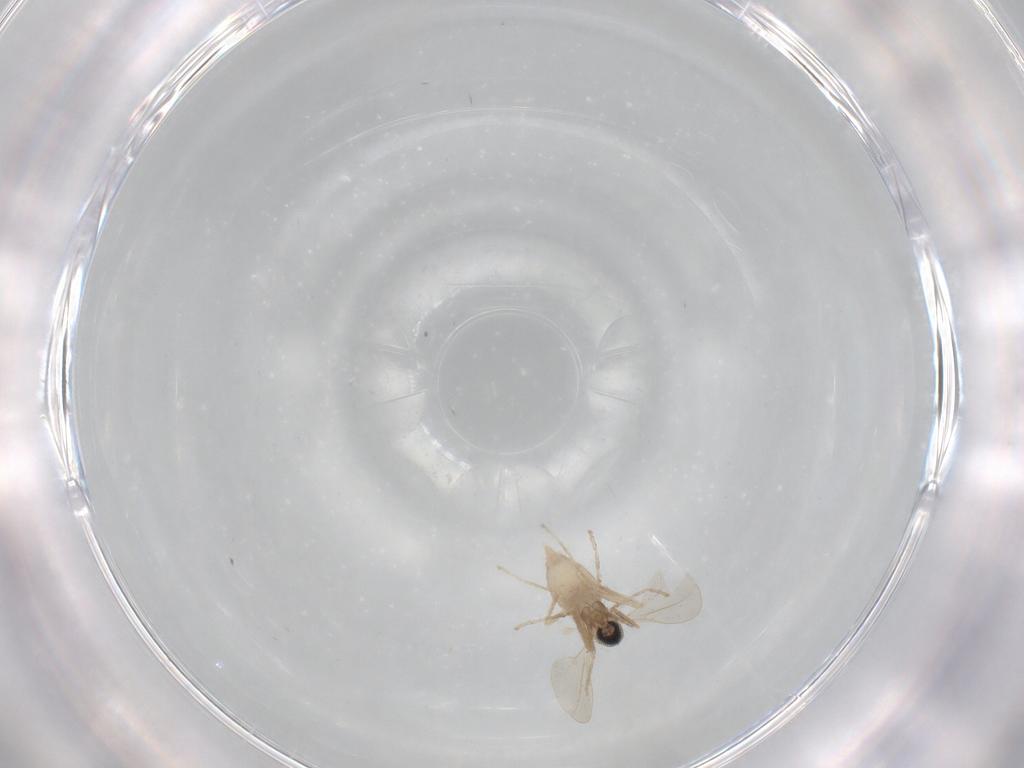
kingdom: Animalia
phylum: Arthropoda
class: Insecta
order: Diptera
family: Cecidomyiidae
